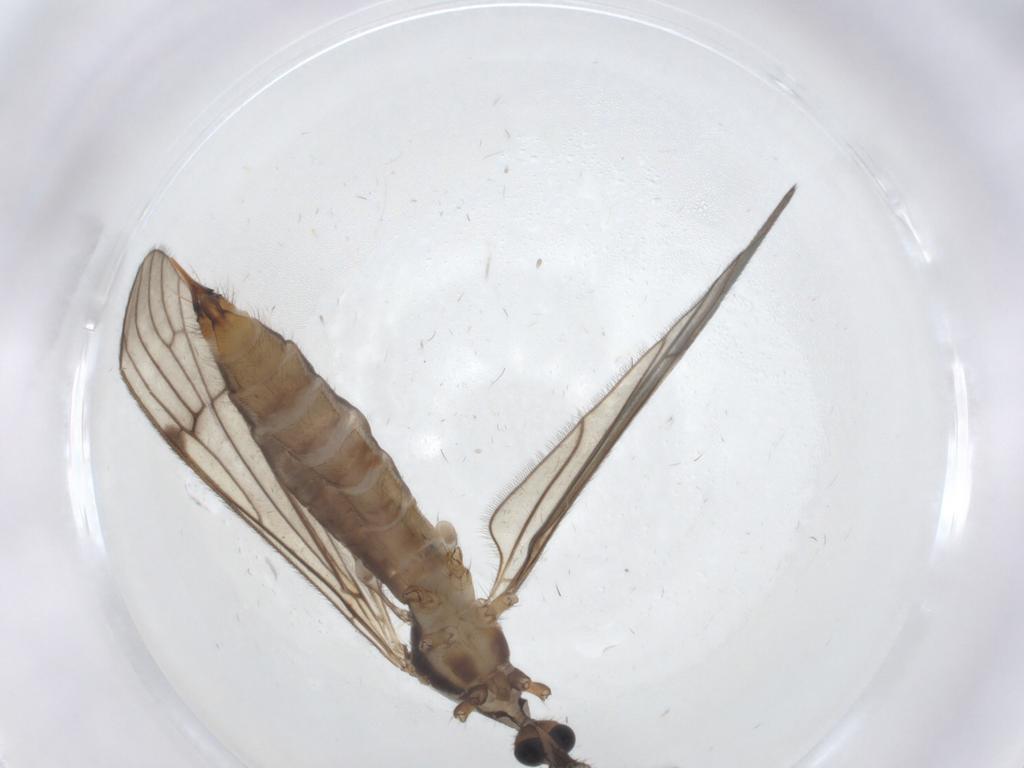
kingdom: Animalia
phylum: Arthropoda
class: Insecta
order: Diptera
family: Limoniidae
